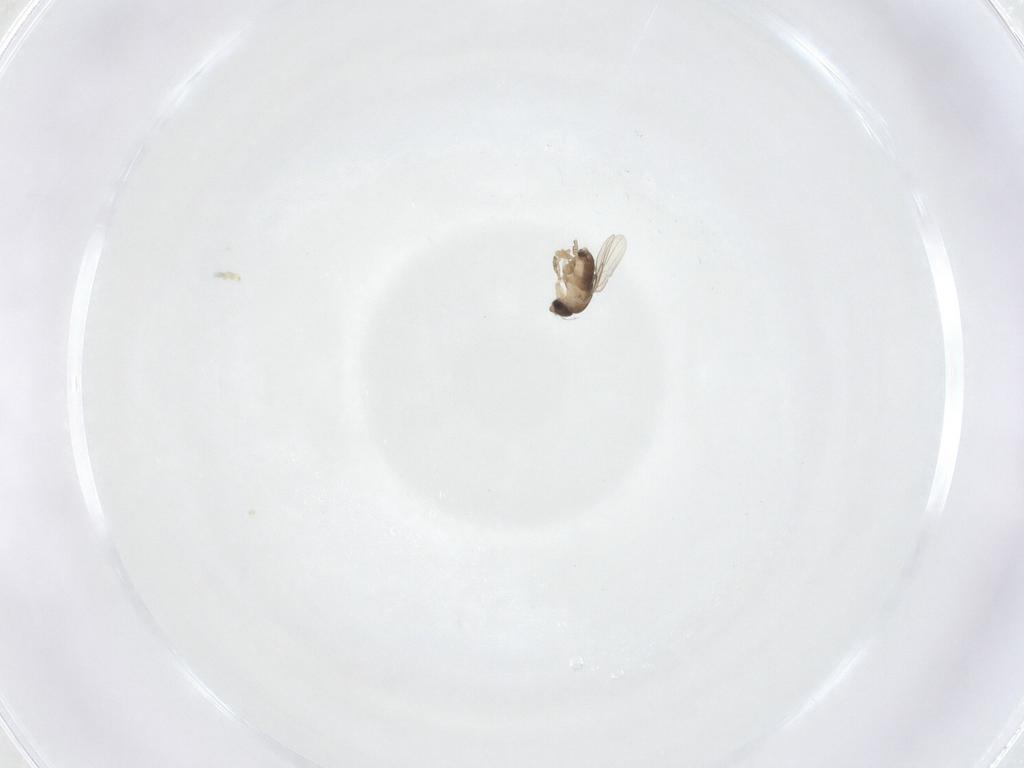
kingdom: Animalia
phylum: Arthropoda
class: Insecta
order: Diptera
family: Phoridae
